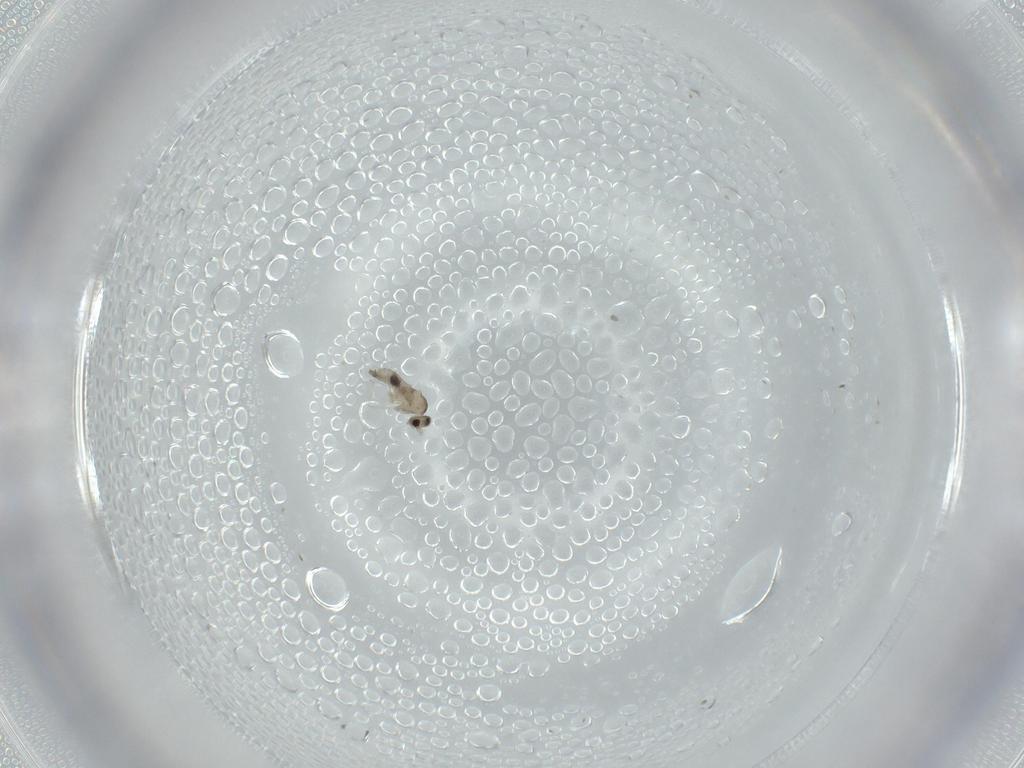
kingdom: Animalia
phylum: Arthropoda
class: Insecta
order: Diptera
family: Cecidomyiidae
